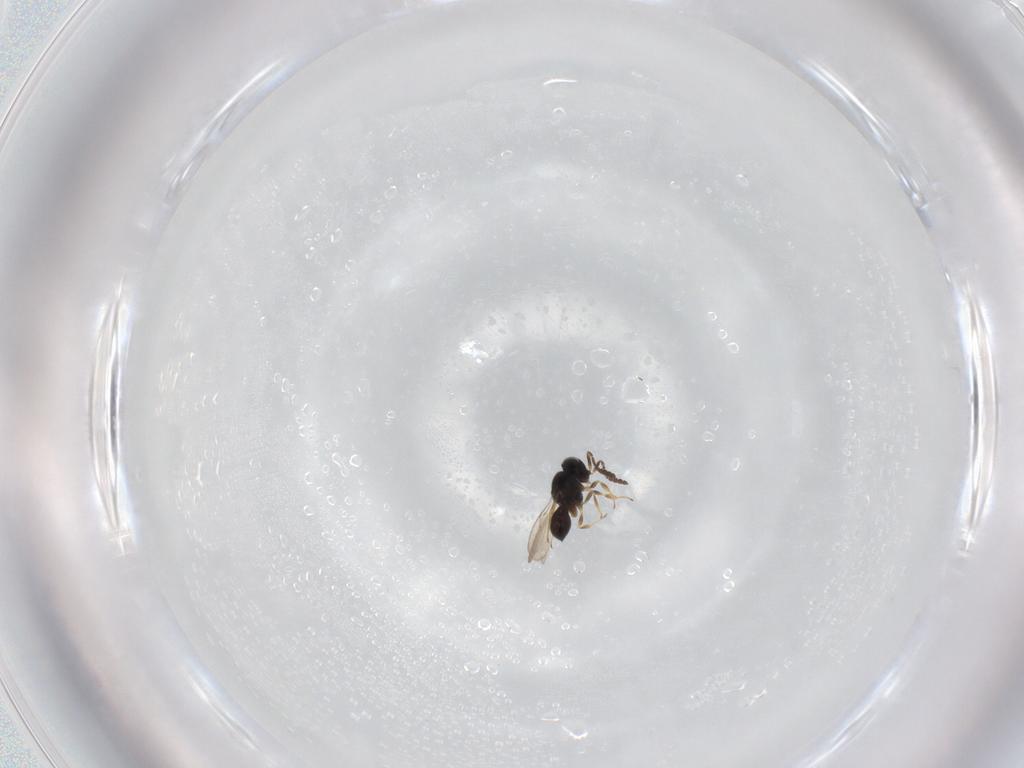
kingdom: Animalia
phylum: Arthropoda
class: Insecta
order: Hymenoptera
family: Scelionidae
